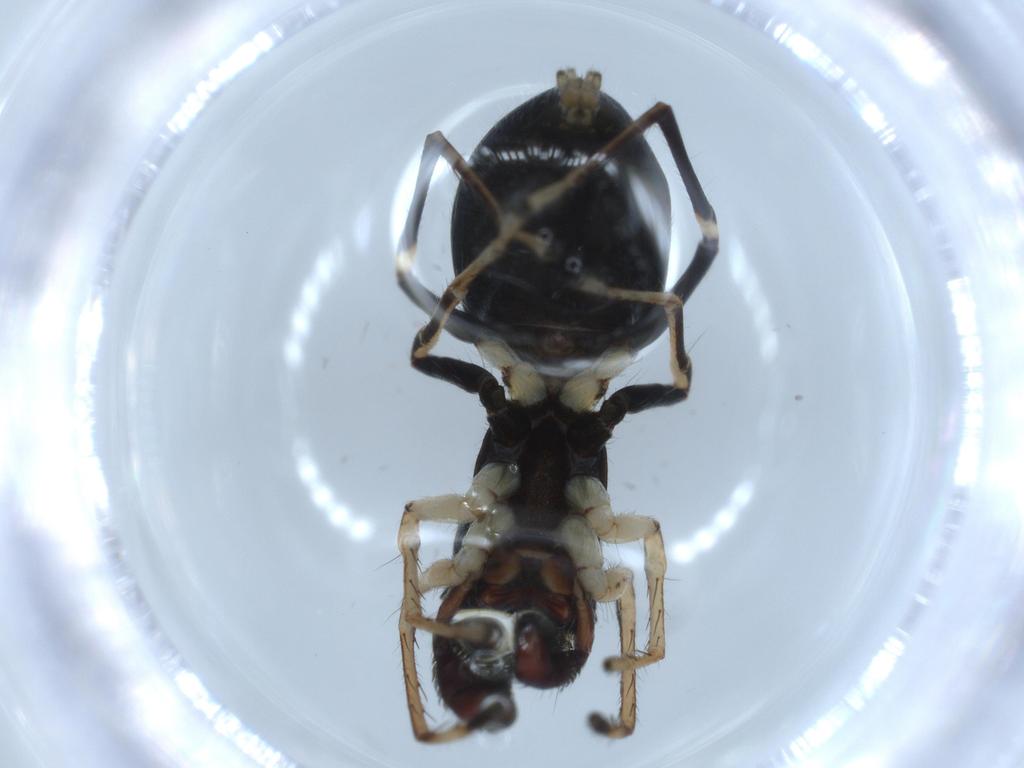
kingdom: Animalia
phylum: Arthropoda
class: Arachnida
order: Araneae
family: Salticidae
